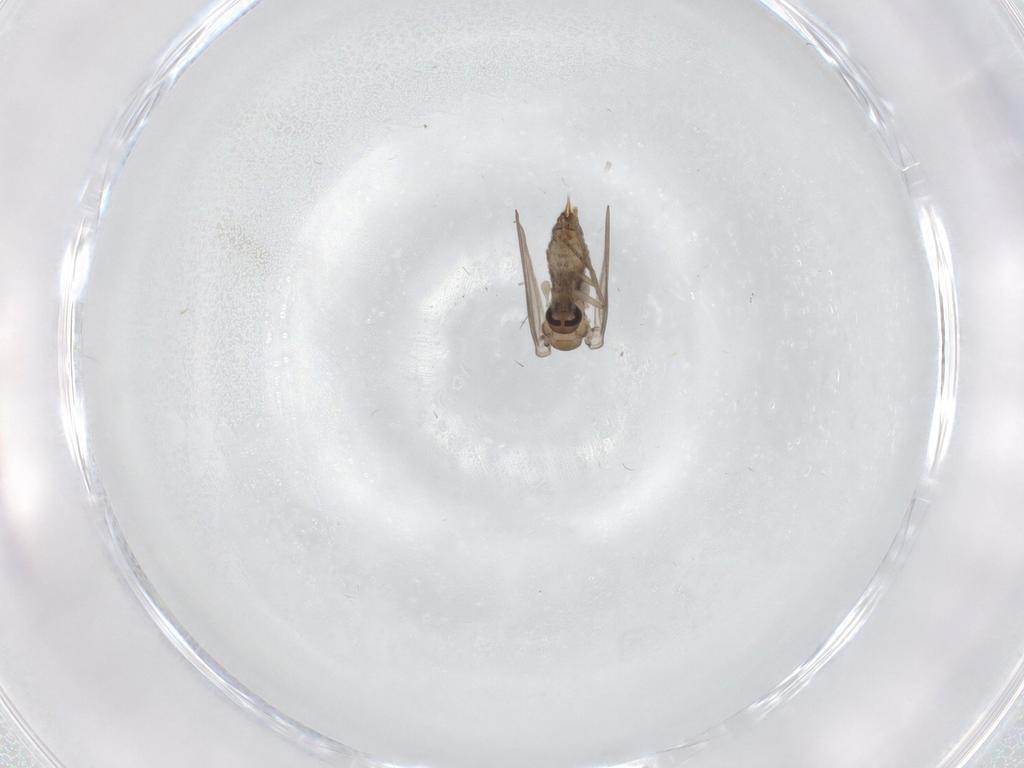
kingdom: Animalia
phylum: Arthropoda
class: Insecta
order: Diptera
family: Psychodidae
